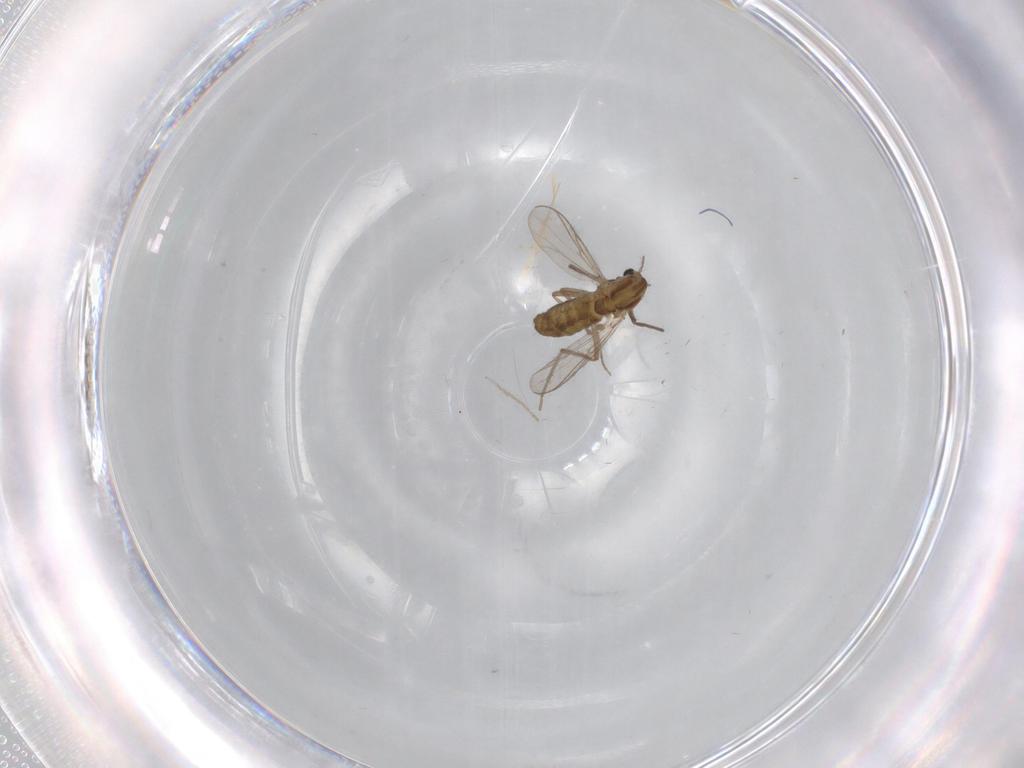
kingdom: Animalia
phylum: Arthropoda
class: Insecta
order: Diptera
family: Chironomidae
